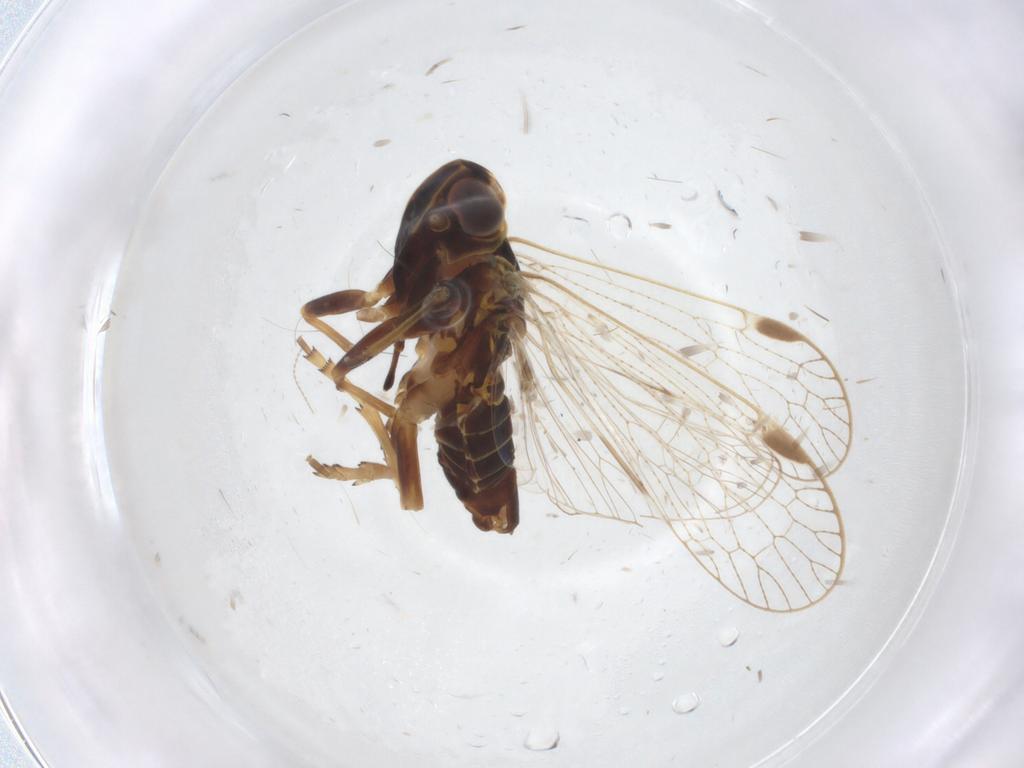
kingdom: Animalia
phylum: Arthropoda
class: Insecta
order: Hemiptera
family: Cixiidae
